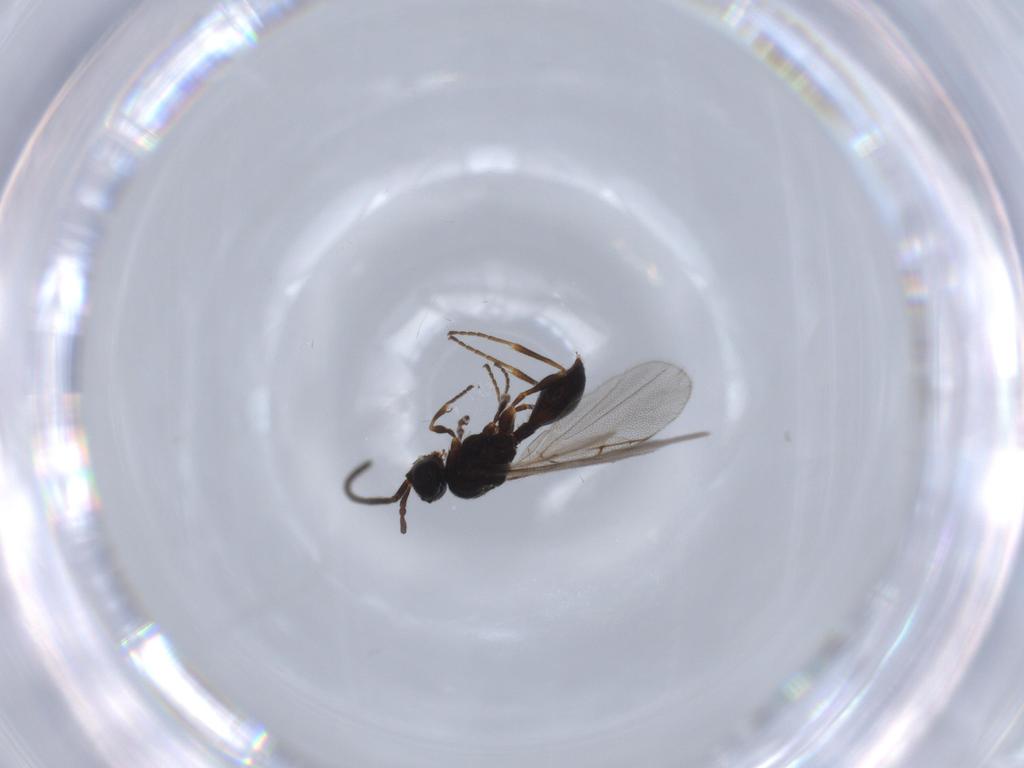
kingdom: Animalia
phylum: Arthropoda
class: Insecta
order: Hymenoptera
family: Diapriidae
